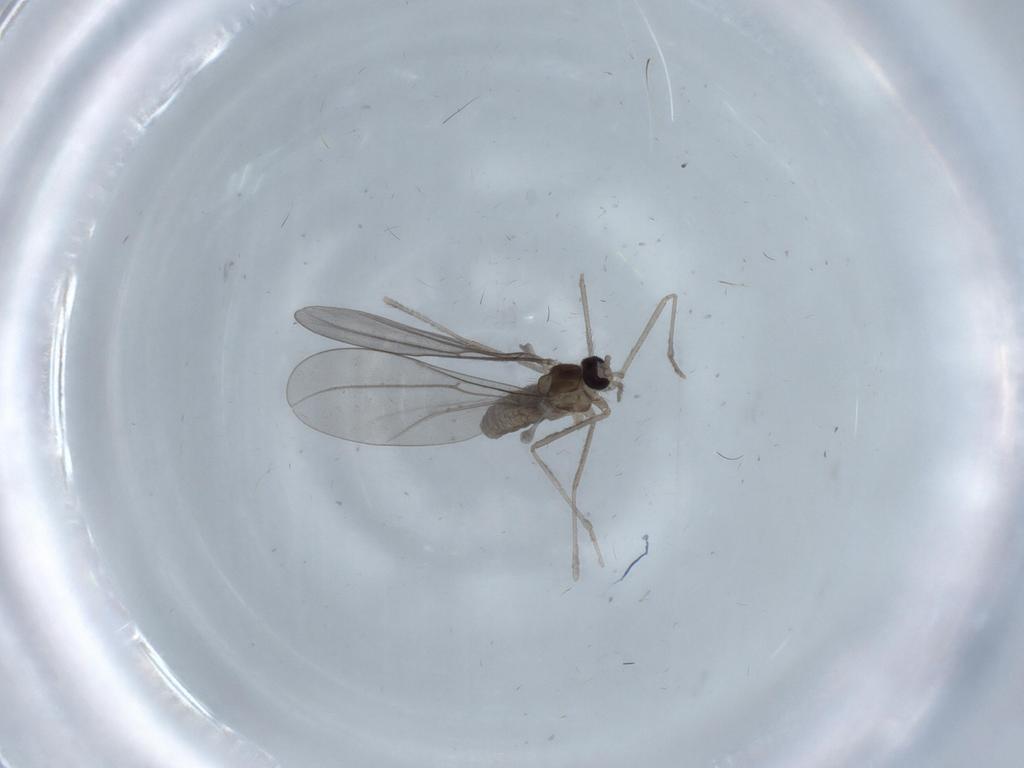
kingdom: Animalia
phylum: Arthropoda
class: Insecta
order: Diptera
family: Cecidomyiidae
